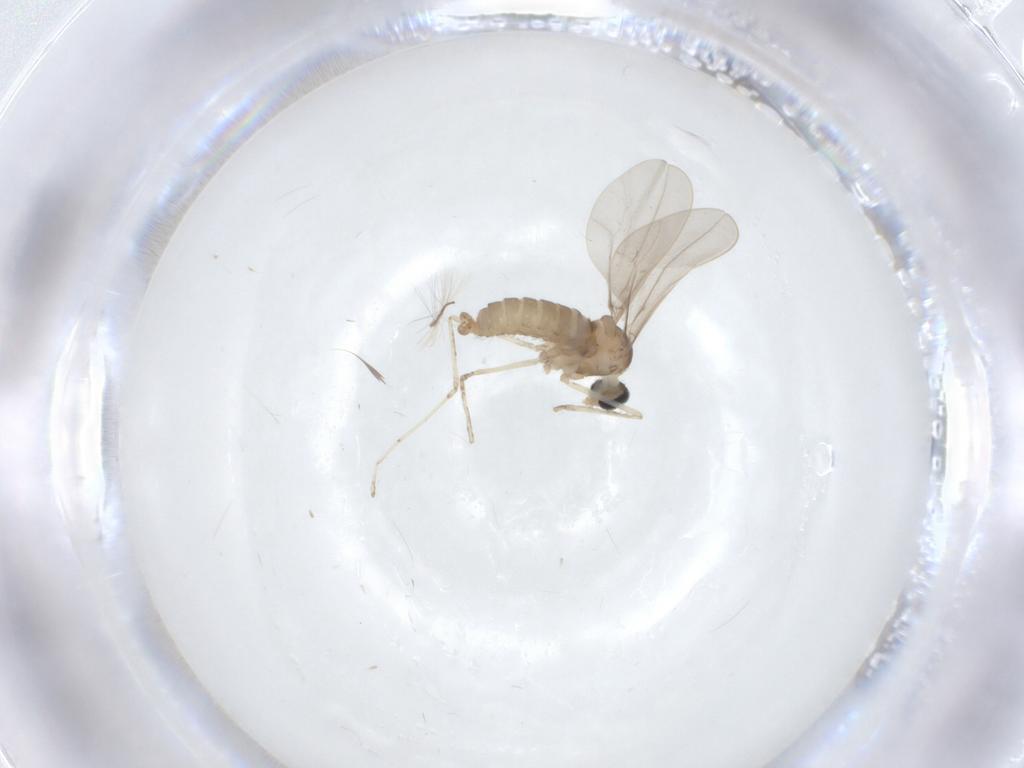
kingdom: Animalia
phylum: Arthropoda
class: Insecta
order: Diptera
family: Cecidomyiidae
